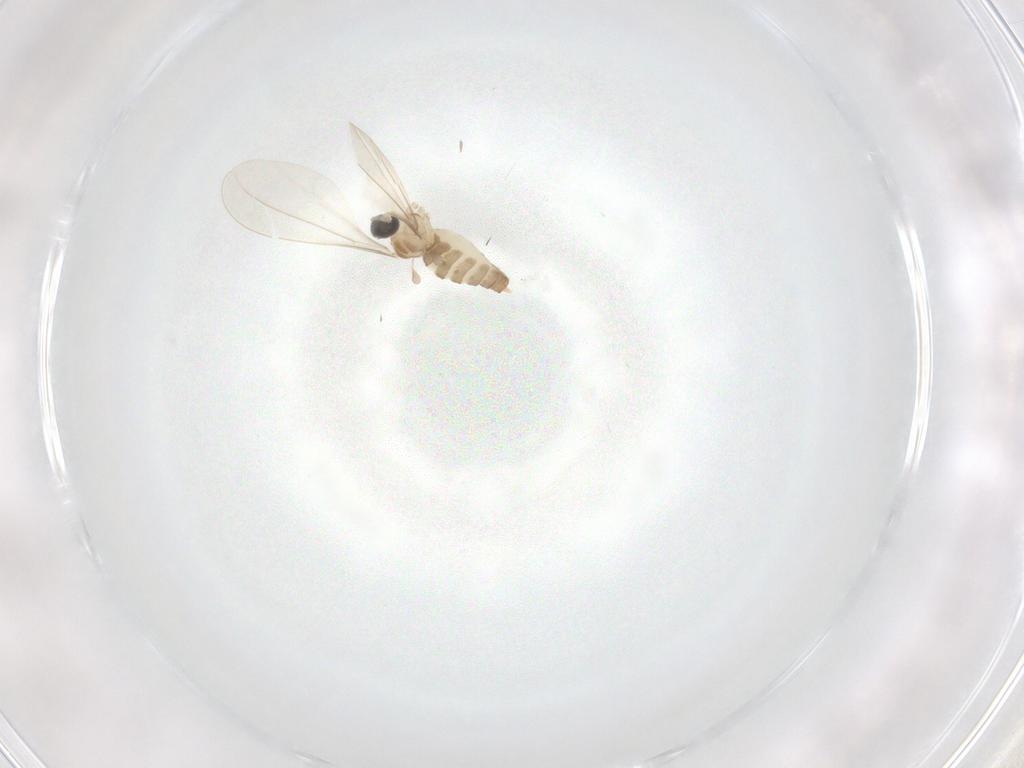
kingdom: Animalia
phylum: Arthropoda
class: Insecta
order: Diptera
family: Cecidomyiidae
